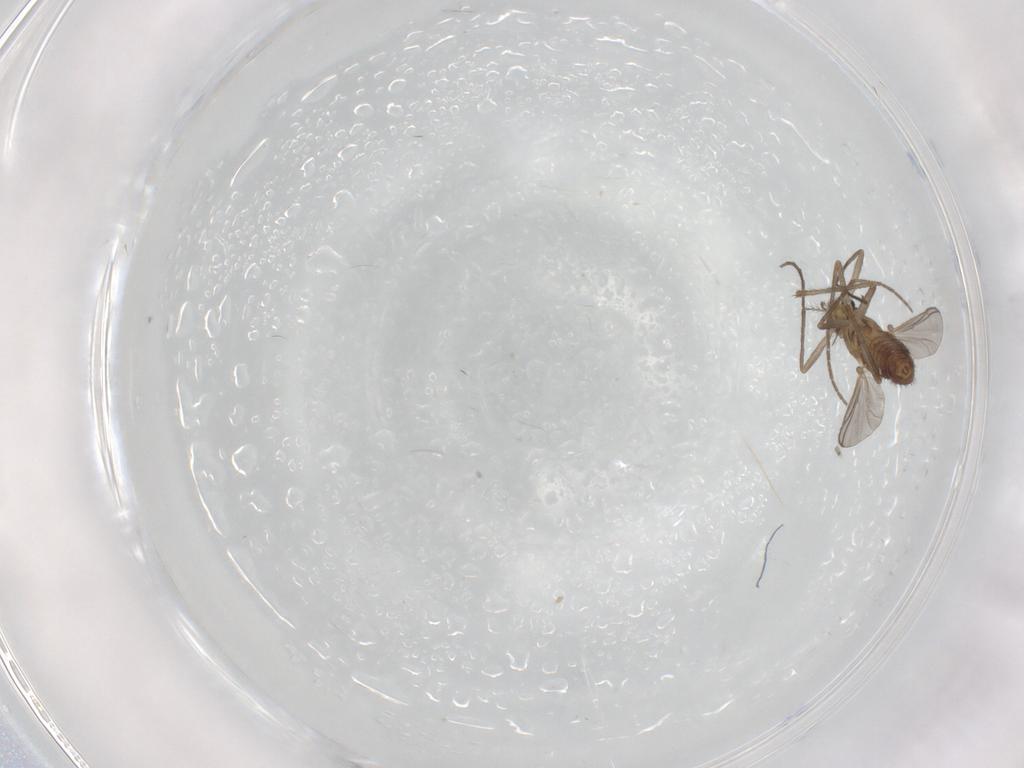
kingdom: Animalia
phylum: Arthropoda
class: Insecta
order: Diptera
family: Chironomidae
